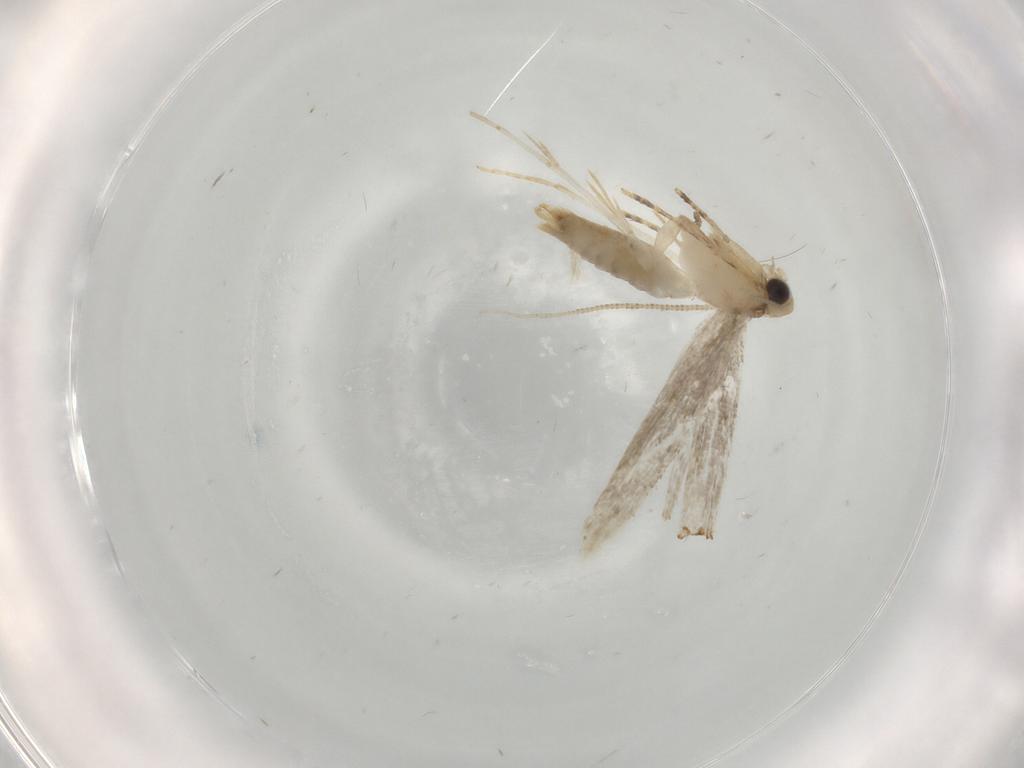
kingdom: Animalia
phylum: Arthropoda
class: Insecta
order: Lepidoptera
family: Tineidae
